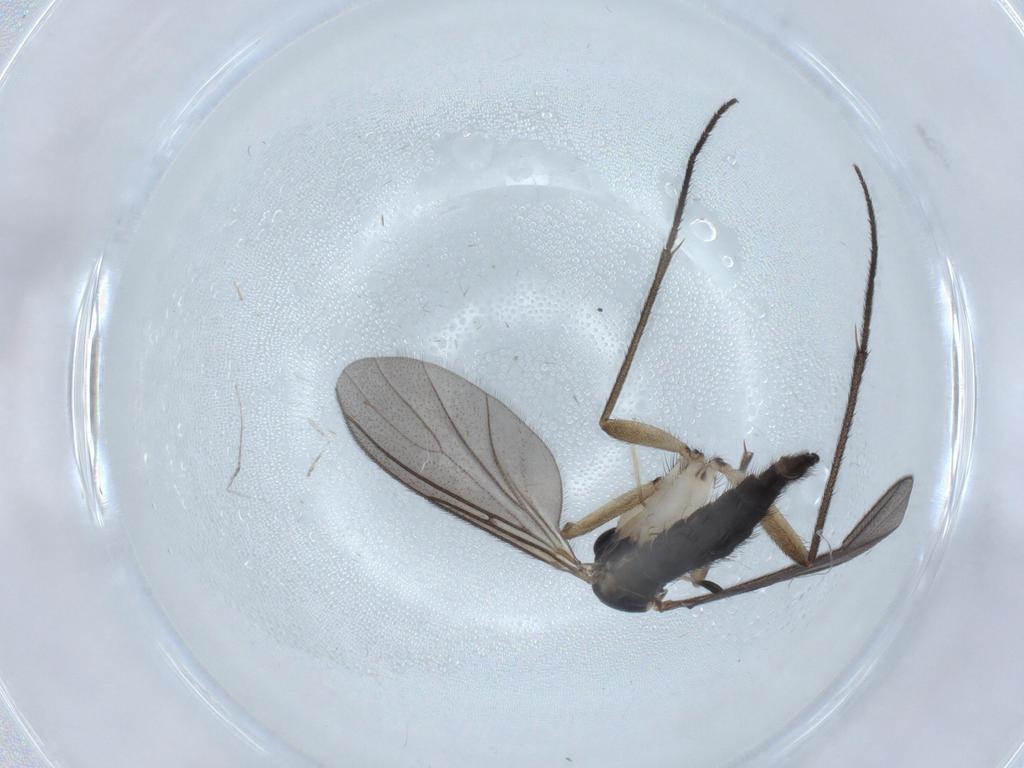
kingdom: Animalia
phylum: Arthropoda
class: Insecta
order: Diptera
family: Sciaridae
